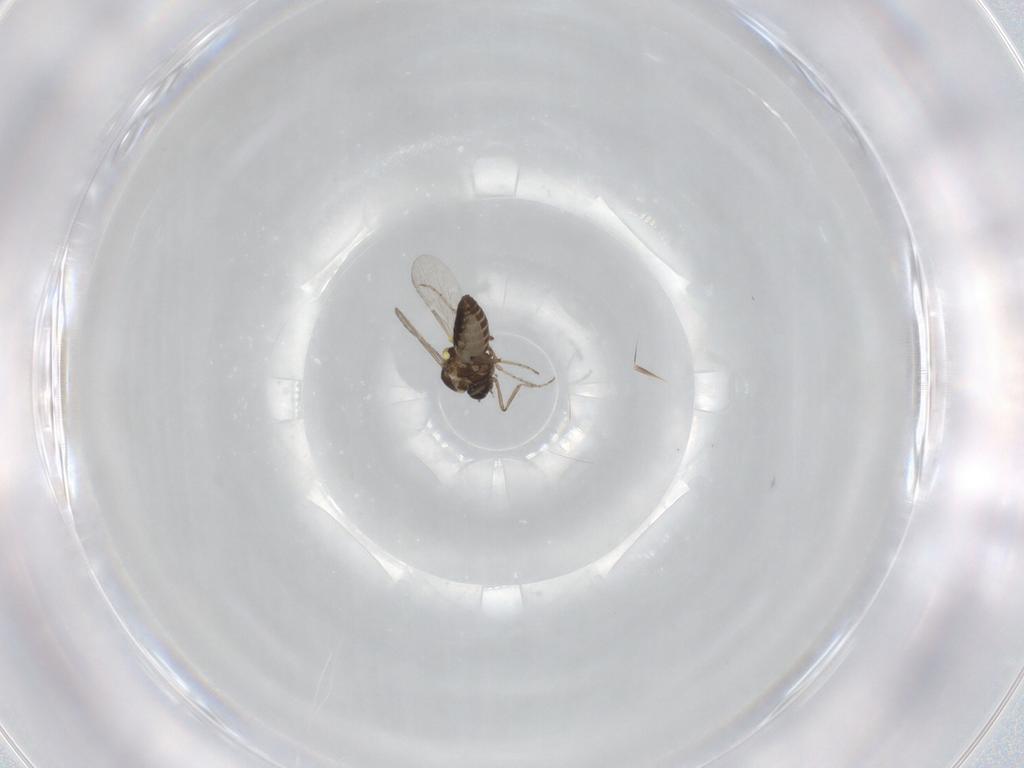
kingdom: Animalia
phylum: Arthropoda
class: Insecta
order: Diptera
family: Ceratopogonidae
